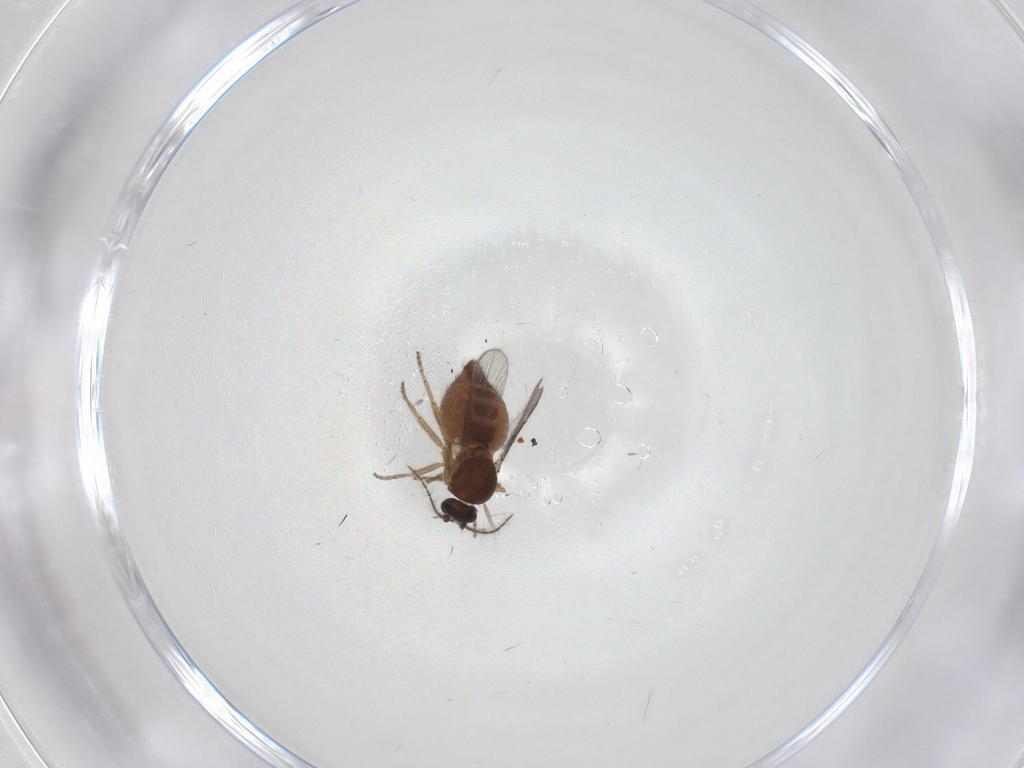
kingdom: Animalia
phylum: Arthropoda
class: Insecta
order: Diptera
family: Ceratopogonidae
